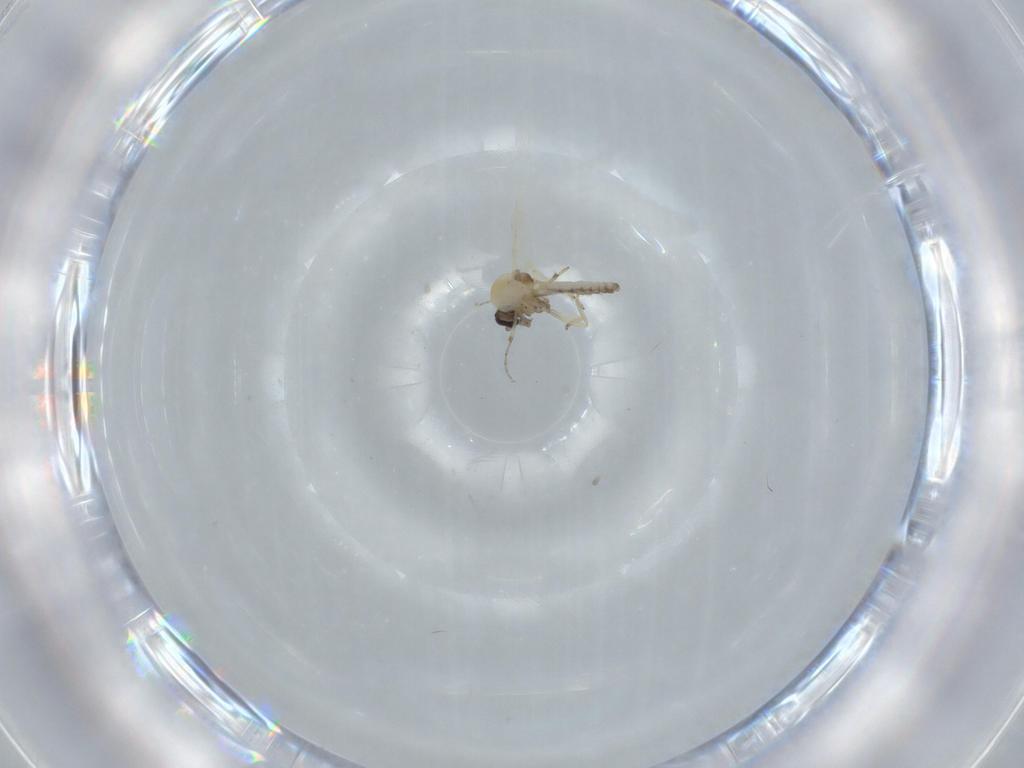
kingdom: Animalia
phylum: Arthropoda
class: Insecta
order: Diptera
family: Ceratopogonidae
